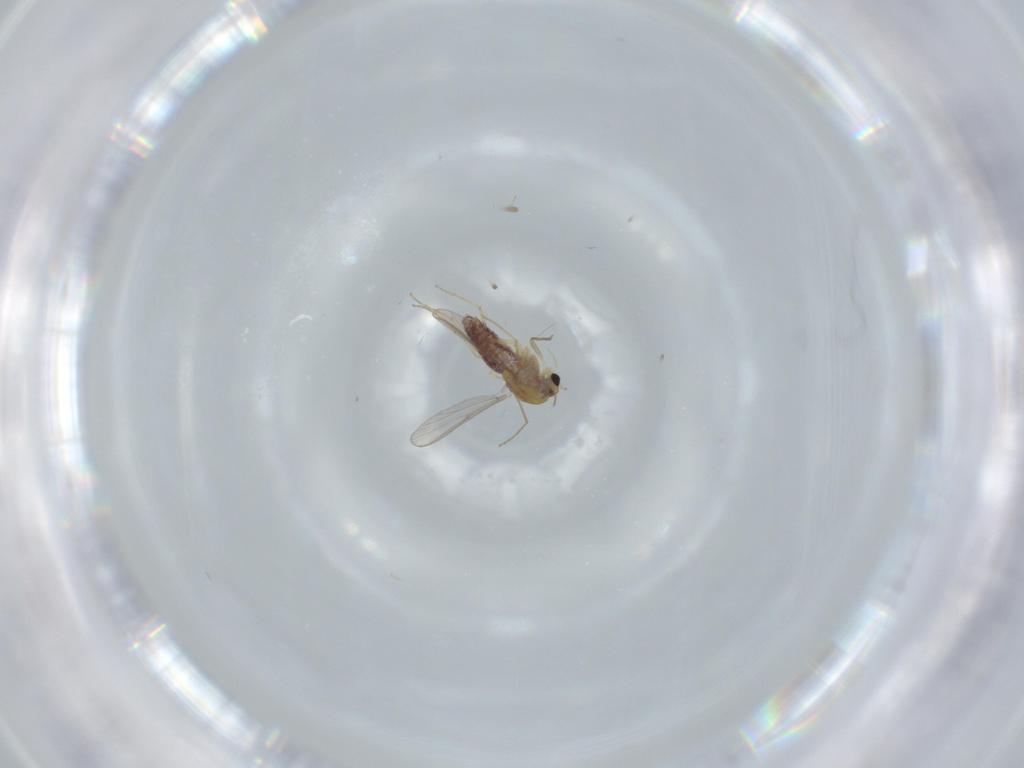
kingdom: Animalia
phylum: Arthropoda
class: Insecta
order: Diptera
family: Chironomidae
